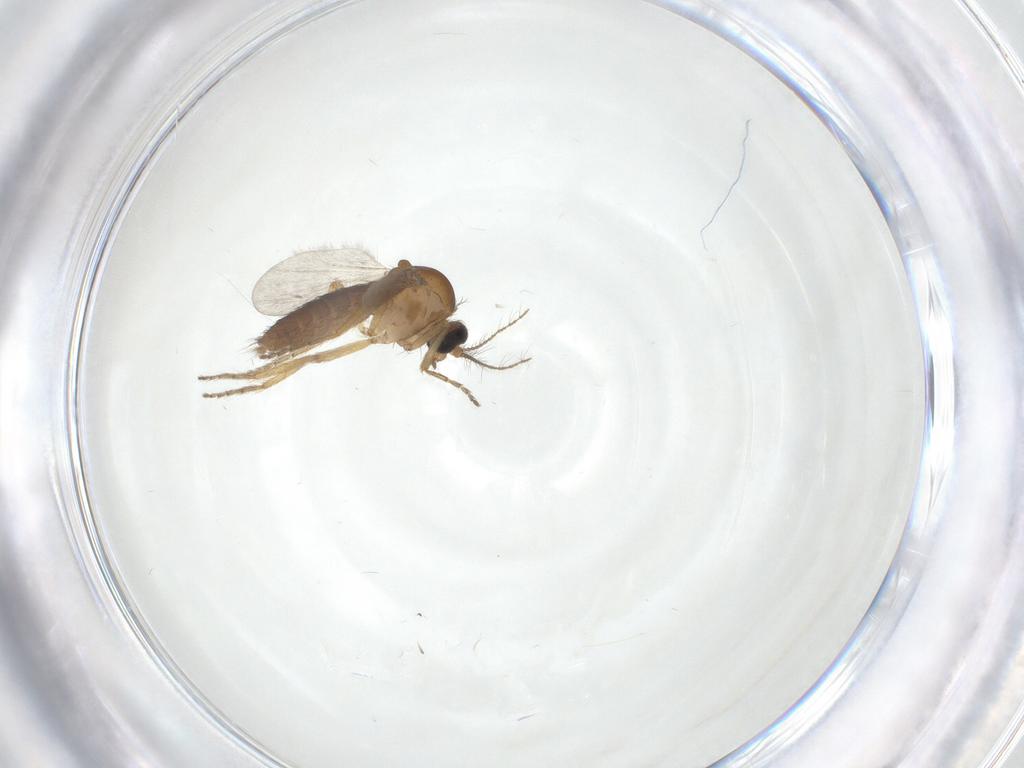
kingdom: Animalia
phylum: Arthropoda
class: Insecta
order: Diptera
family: Ceratopogonidae
